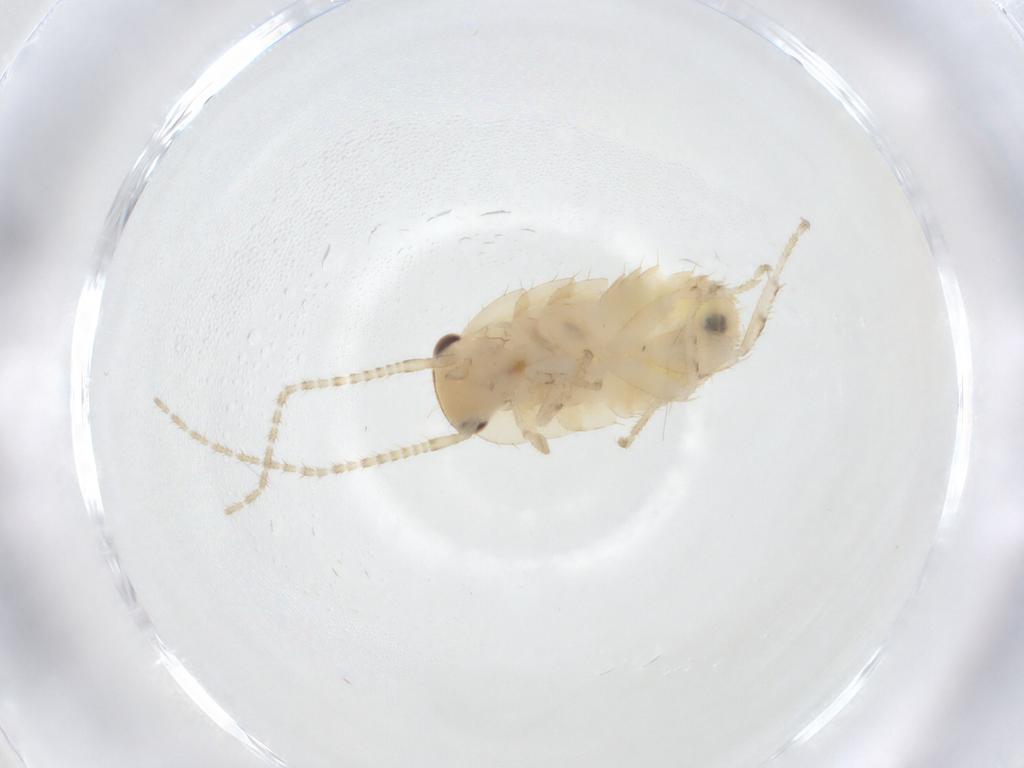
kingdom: Animalia
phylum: Arthropoda
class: Insecta
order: Blattodea
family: Ectobiidae
